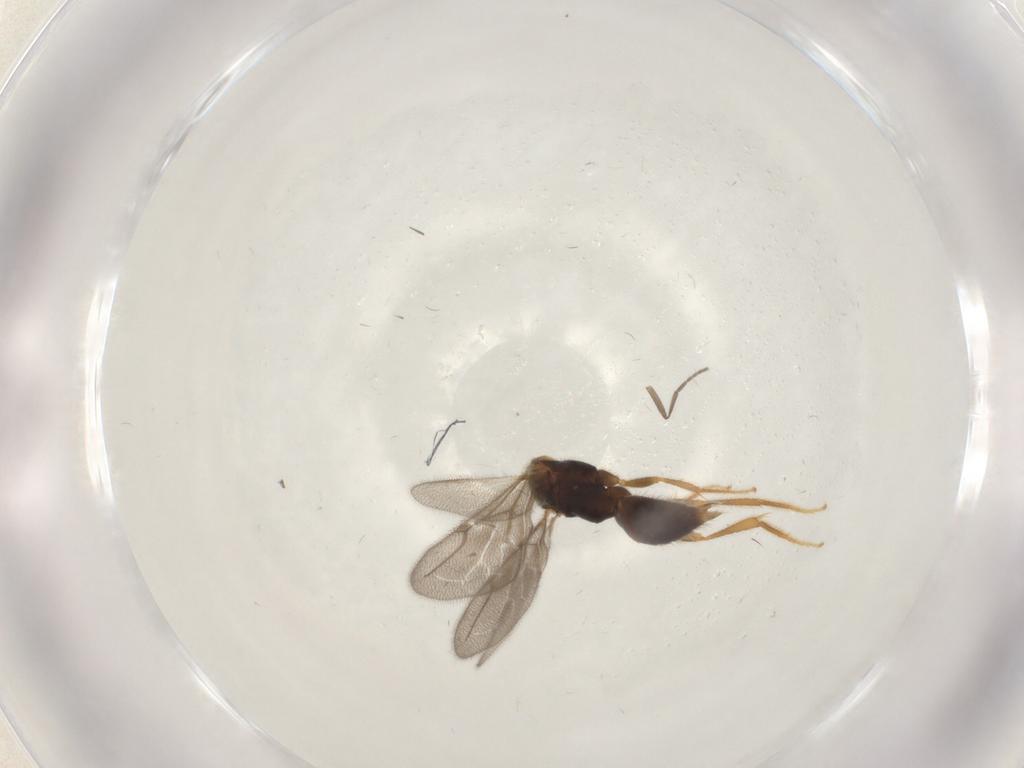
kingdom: Animalia
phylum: Arthropoda
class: Insecta
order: Hymenoptera
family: Bethylidae
